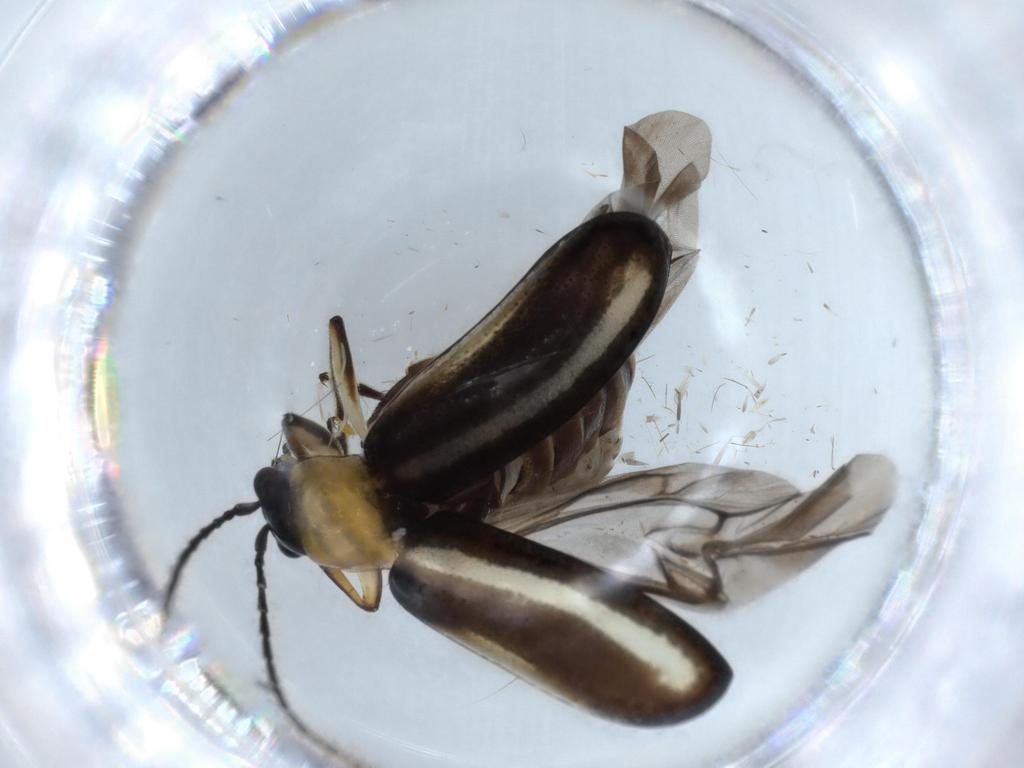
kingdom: Animalia
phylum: Arthropoda
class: Insecta
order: Coleoptera
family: Chrysomelidae
